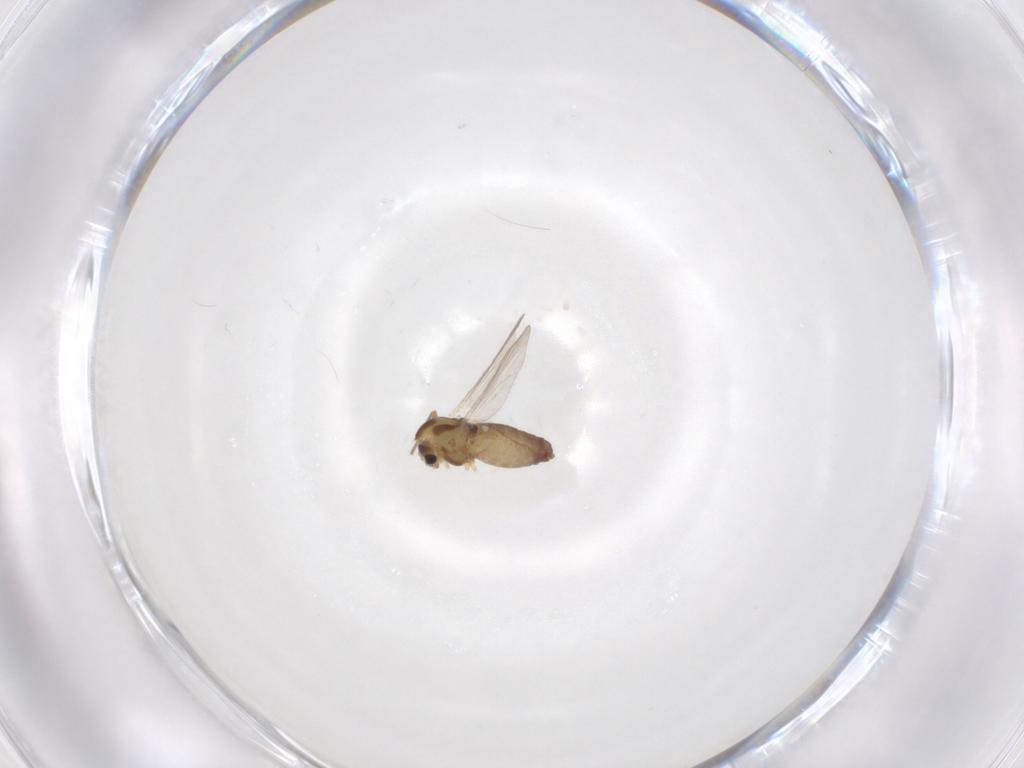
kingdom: Animalia
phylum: Arthropoda
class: Insecta
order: Diptera
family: Chironomidae
